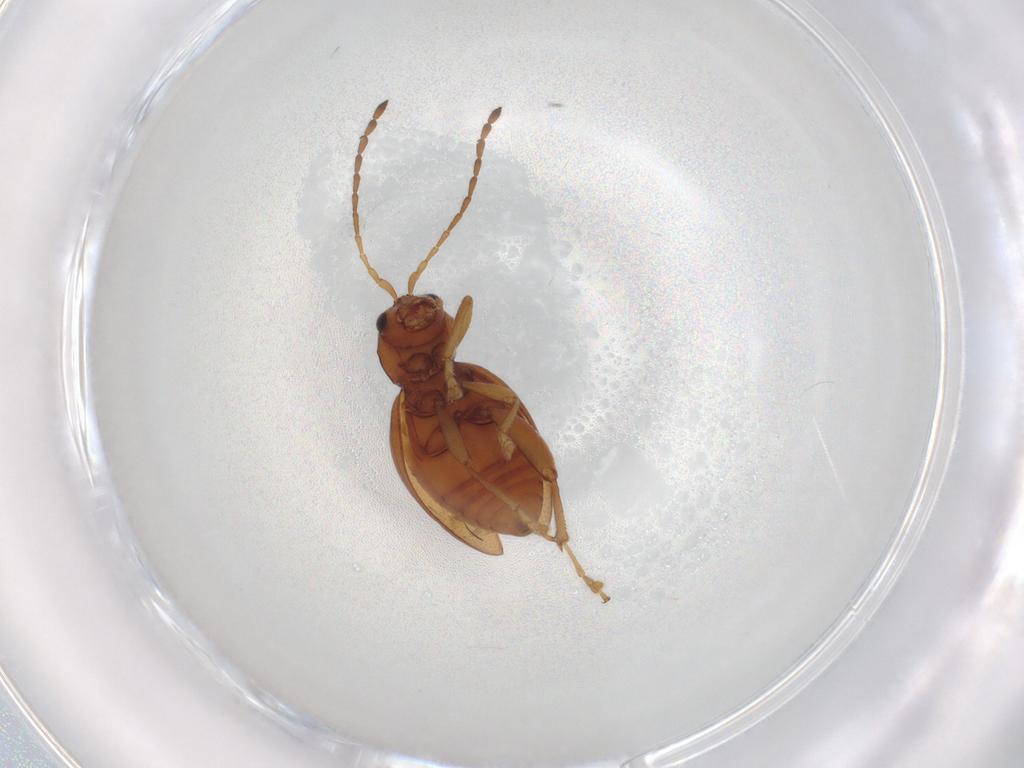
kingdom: Animalia
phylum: Arthropoda
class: Insecta
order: Coleoptera
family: Chrysomelidae
